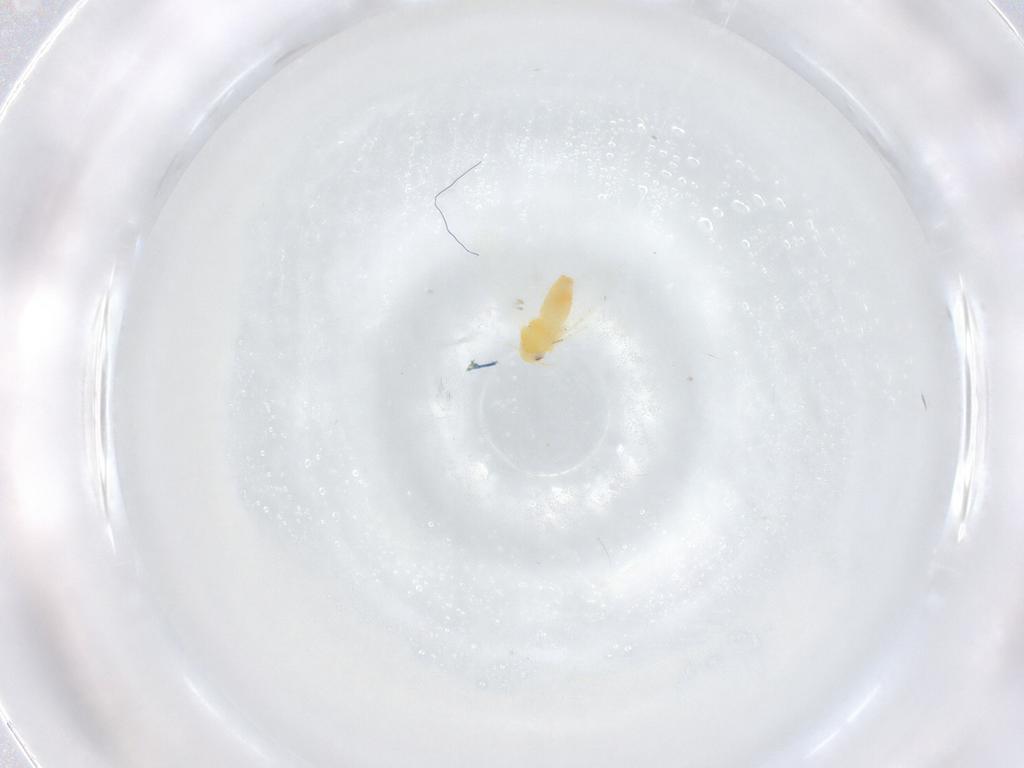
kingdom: Animalia
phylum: Arthropoda
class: Insecta
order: Hemiptera
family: Aleyrodidae
